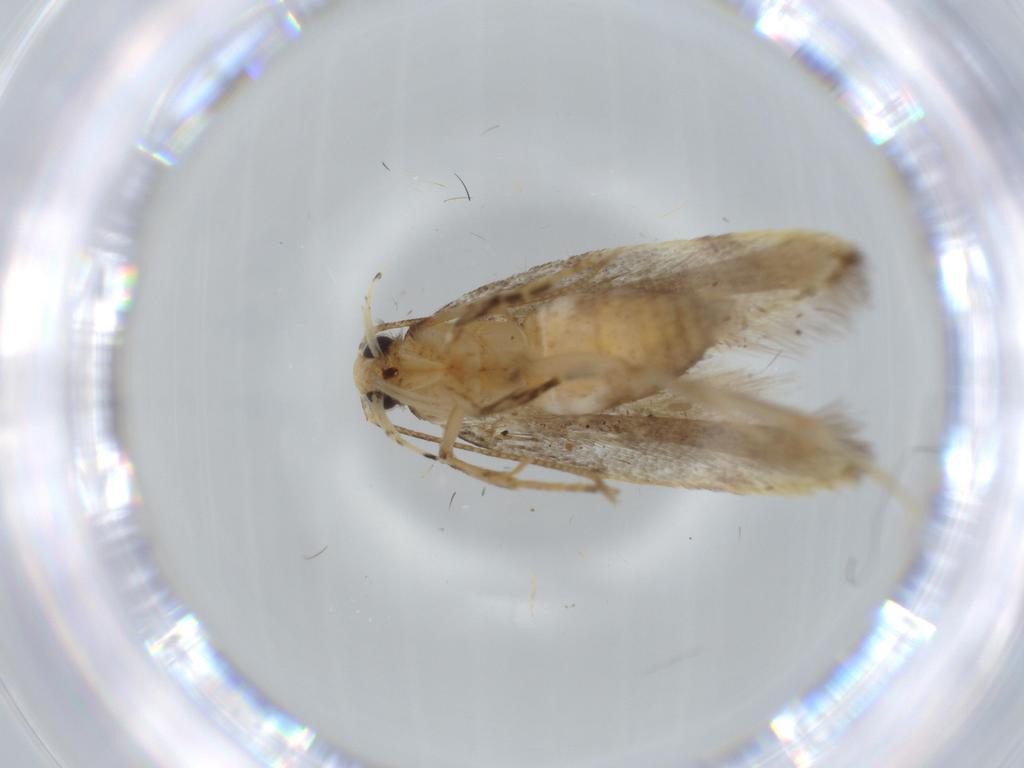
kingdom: Animalia
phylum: Arthropoda
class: Insecta
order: Lepidoptera
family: Autostichidae
